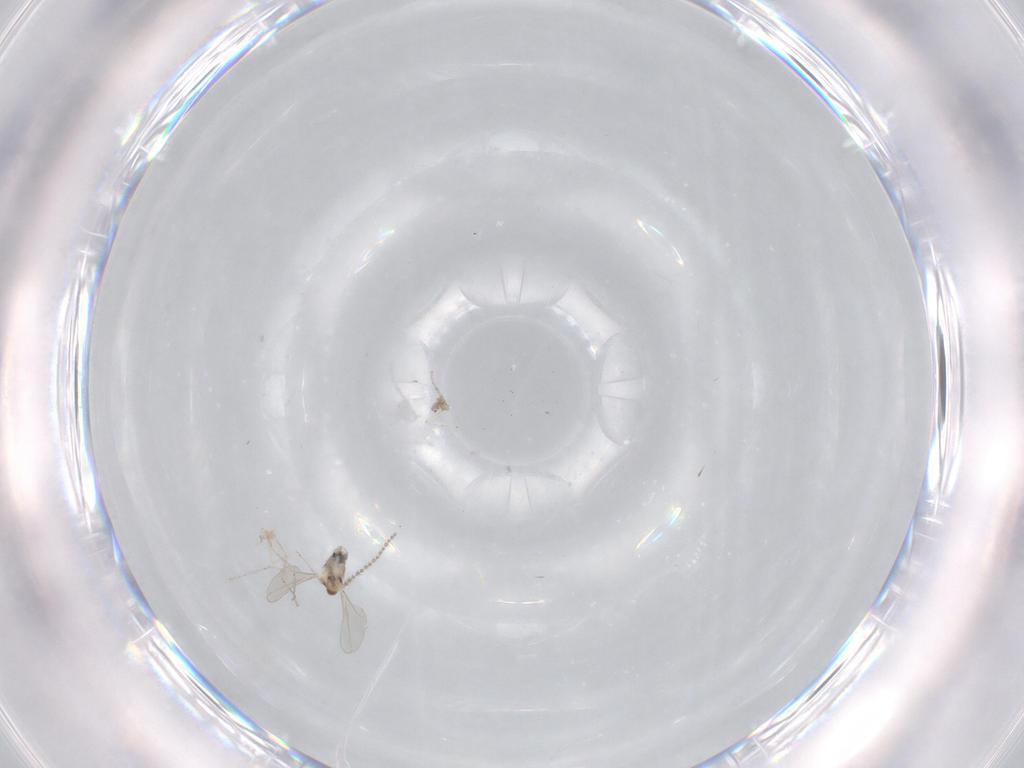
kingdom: Animalia
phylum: Arthropoda
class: Insecta
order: Diptera
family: Cecidomyiidae
